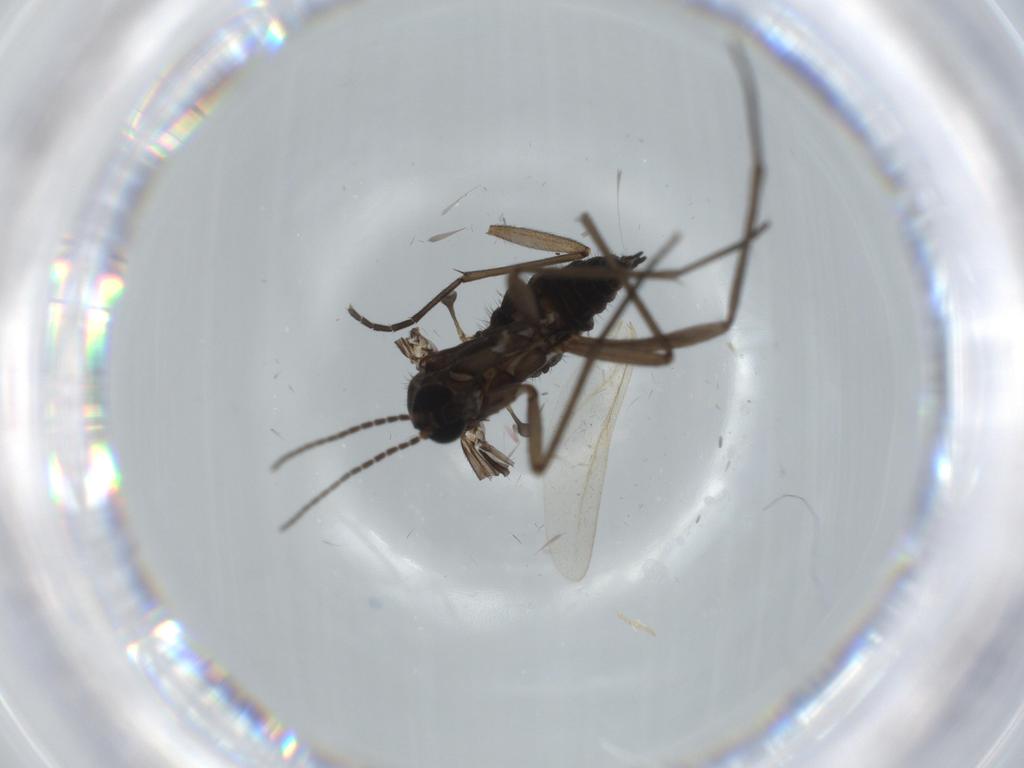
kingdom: Animalia
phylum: Arthropoda
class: Insecta
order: Diptera
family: Sciaridae
